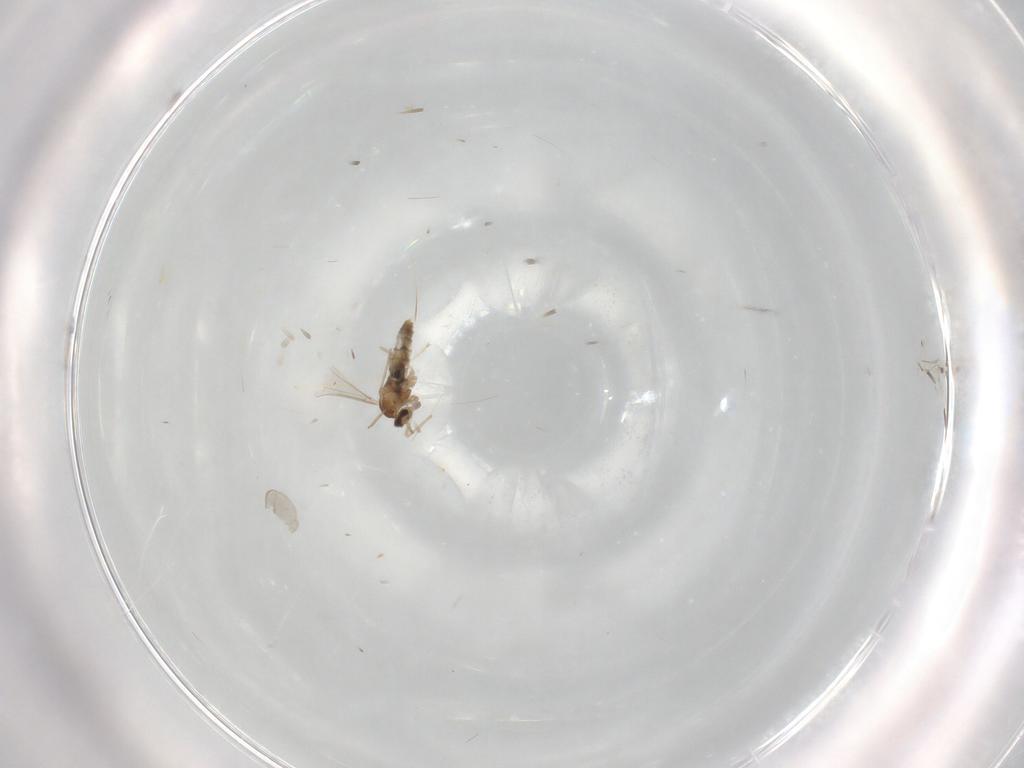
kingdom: Animalia
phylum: Arthropoda
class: Insecta
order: Diptera
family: Cecidomyiidae
